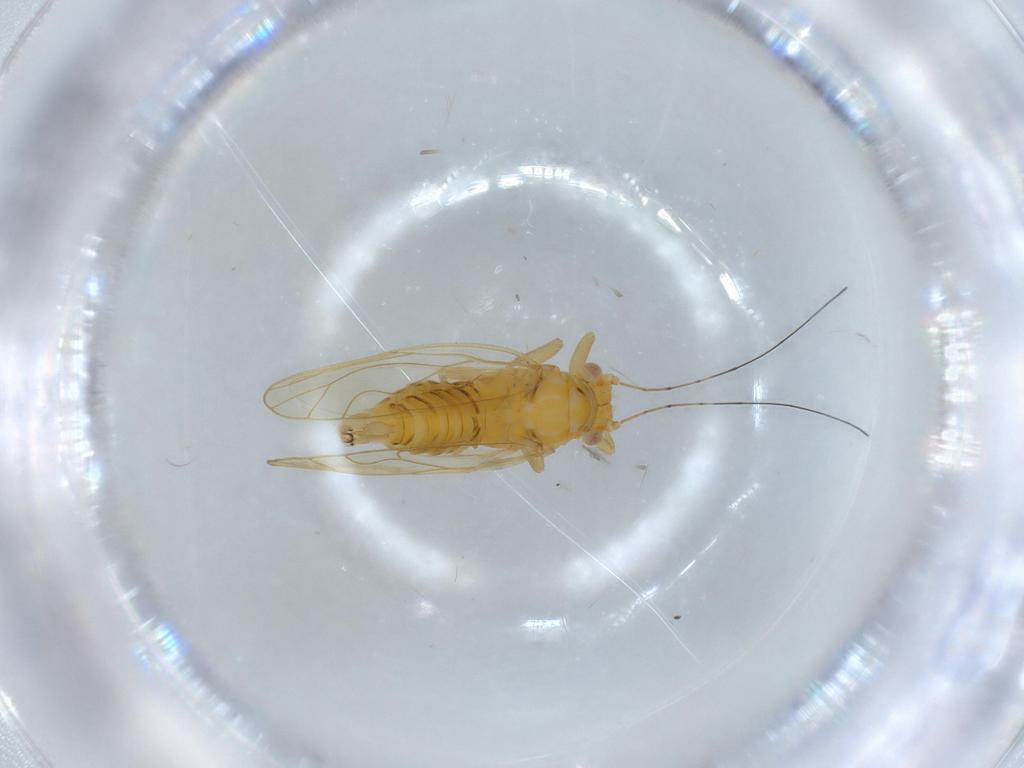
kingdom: Animalia
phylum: Arthropoda
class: Insecta
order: Hemiptera
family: Psyllidae
